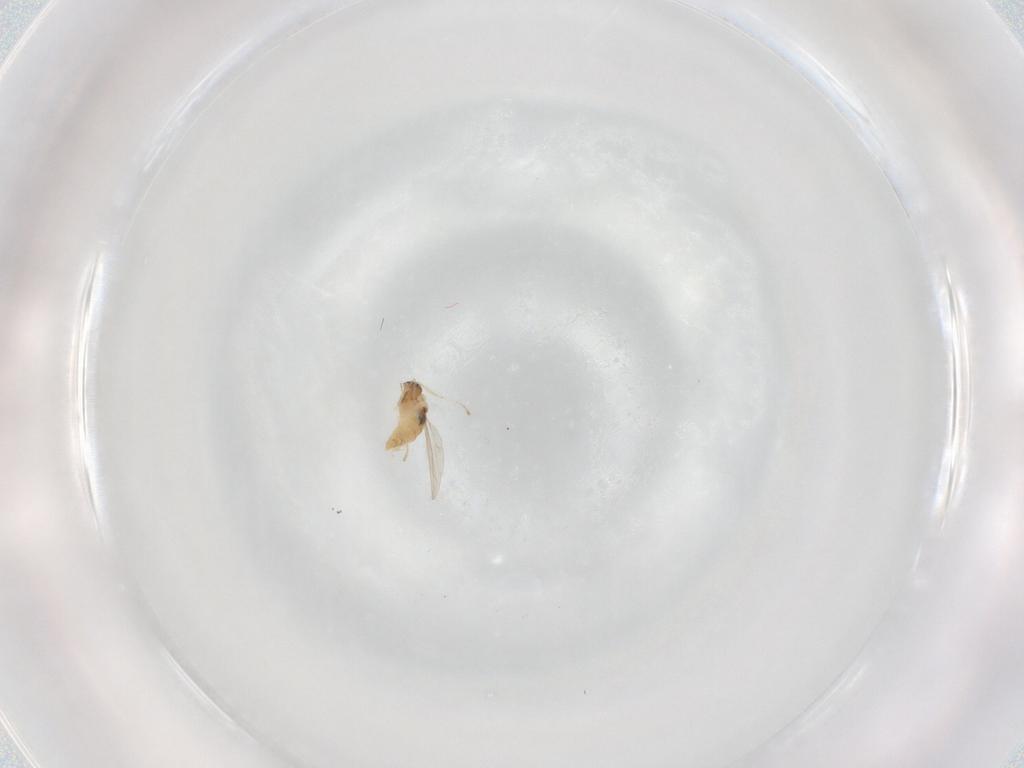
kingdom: Animalia
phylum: Arthropoda
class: Insecta
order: Diptera
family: Cecidomyiidae
